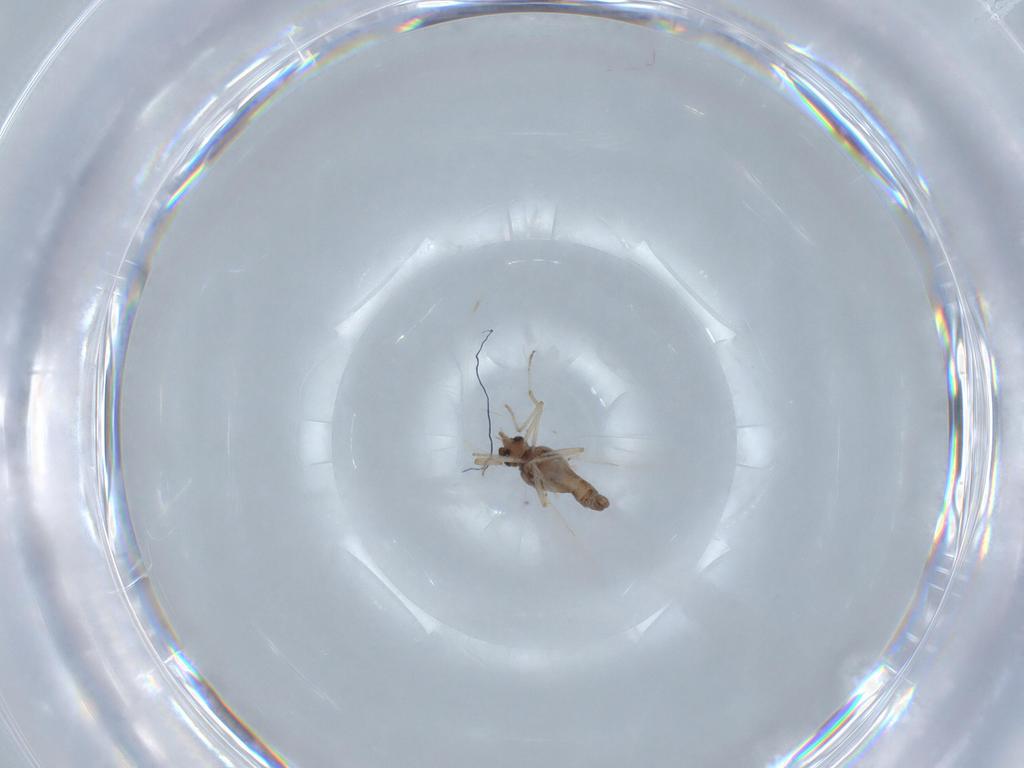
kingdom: Animalia
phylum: Arthropoda
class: Insecta
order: Diptera
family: Ceratopogonidae
